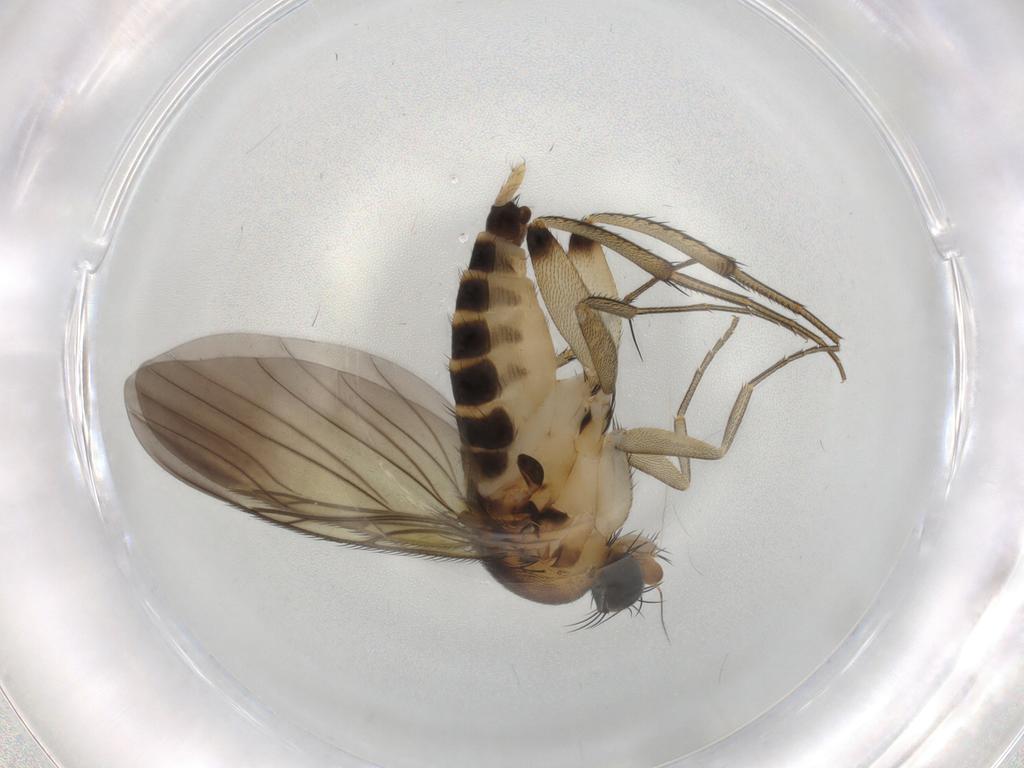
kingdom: Animalia
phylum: Arthropoda
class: Insecta
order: Diptera
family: Phoridae
